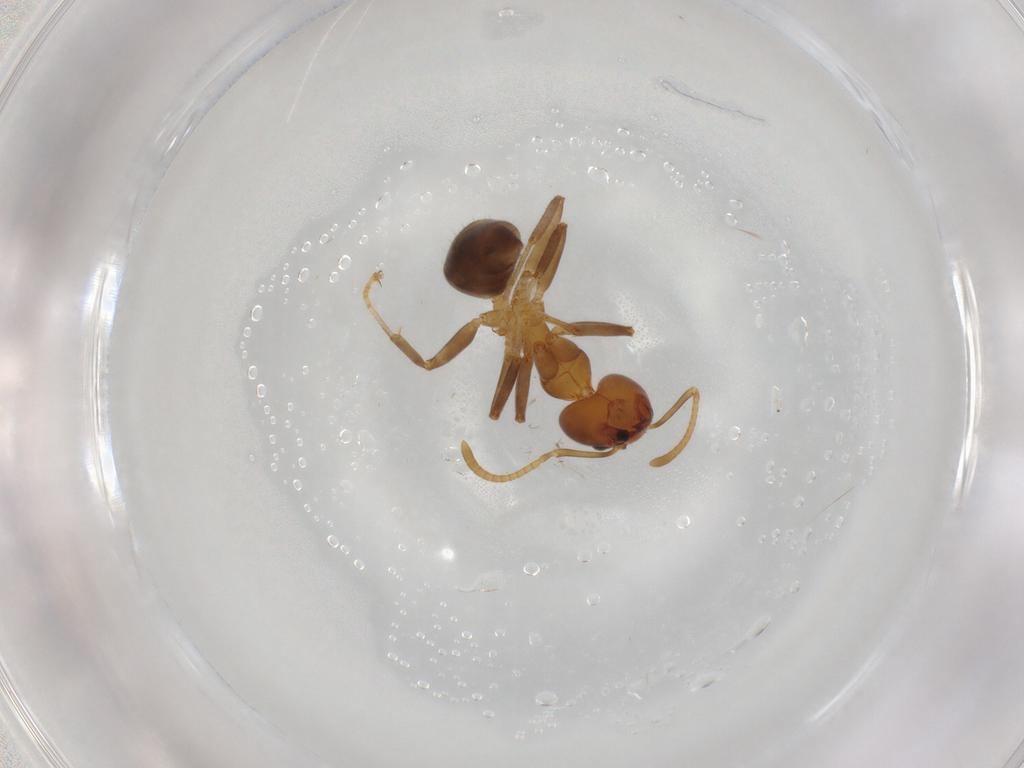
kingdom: Animalia
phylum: Arthropoda
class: Insecta
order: Hymenoptera
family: Formicidae
